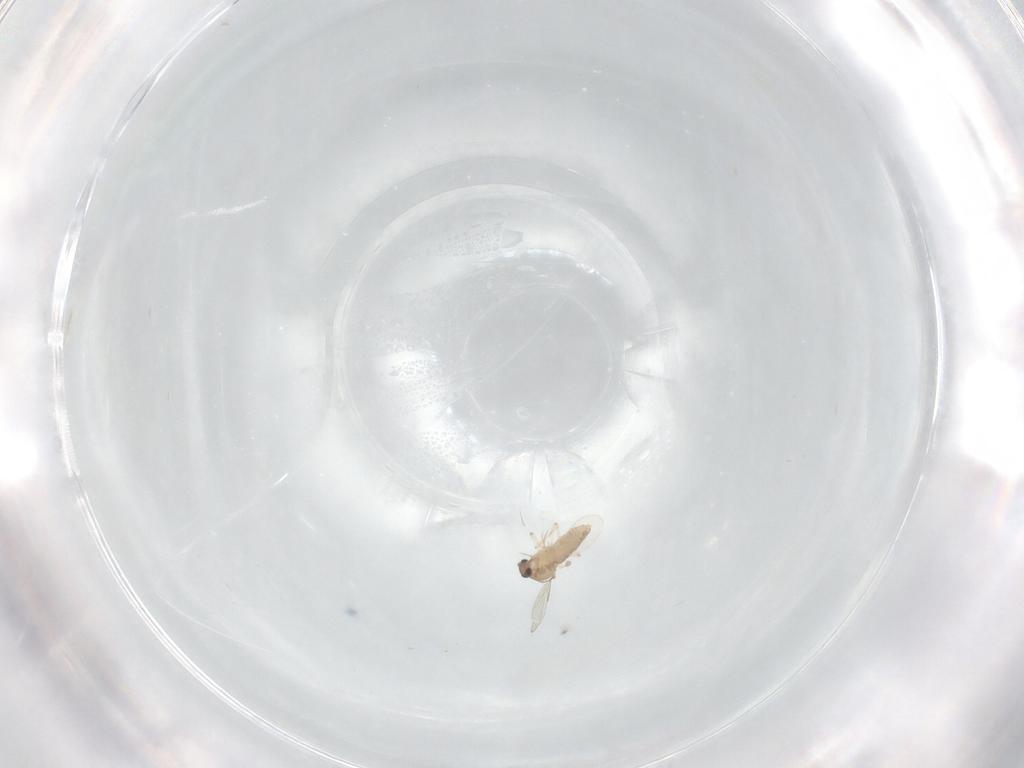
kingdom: Animalia
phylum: Arthropoda
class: Insecta
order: Diptera
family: Ceratopogonidae
